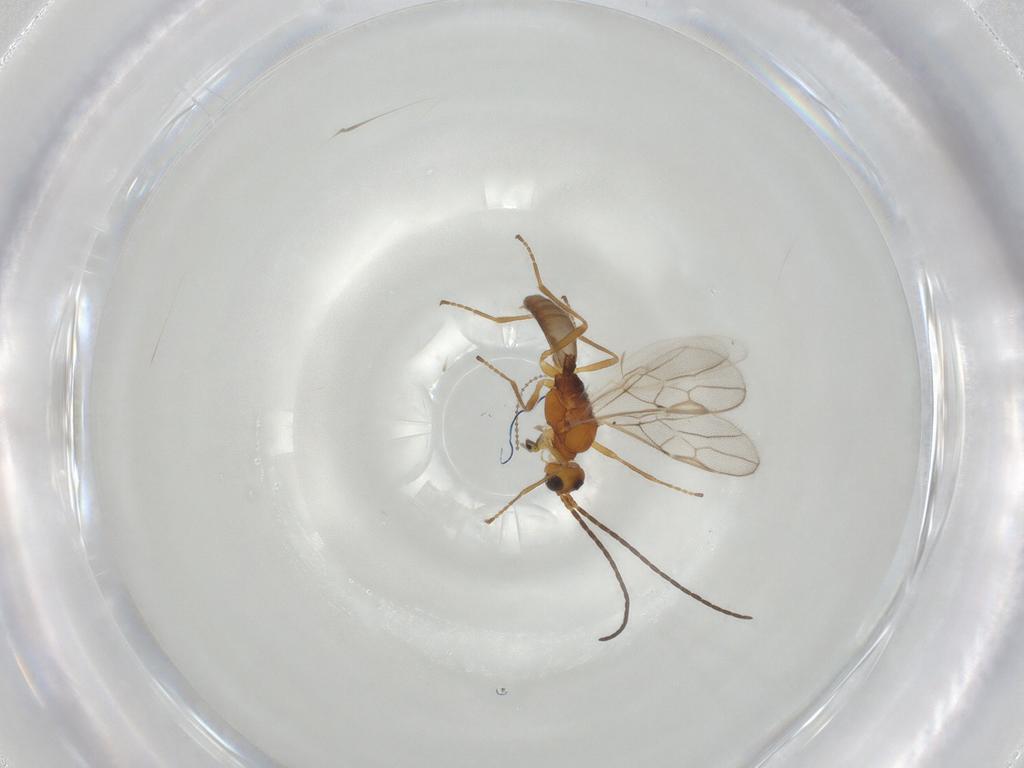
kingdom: Animalia
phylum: Arthropoda
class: Insecta
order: Hymenoptera
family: Braconidae
